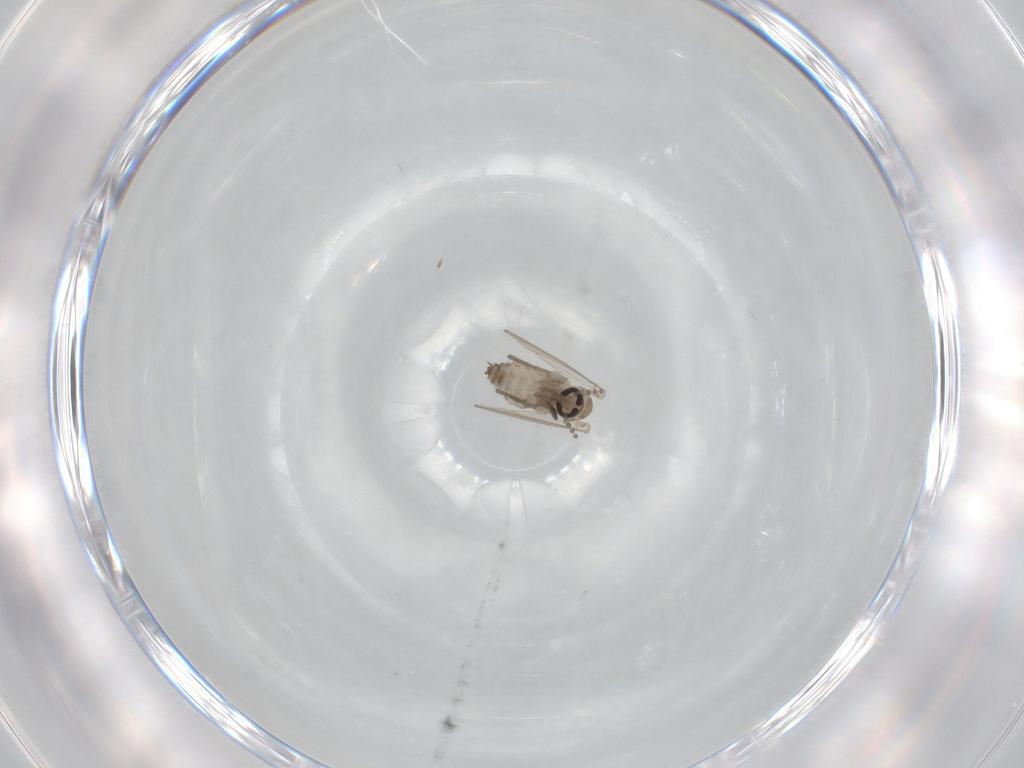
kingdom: Animalia
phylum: Arthropoda
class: Insecta
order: Diptera
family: Psychodidae
